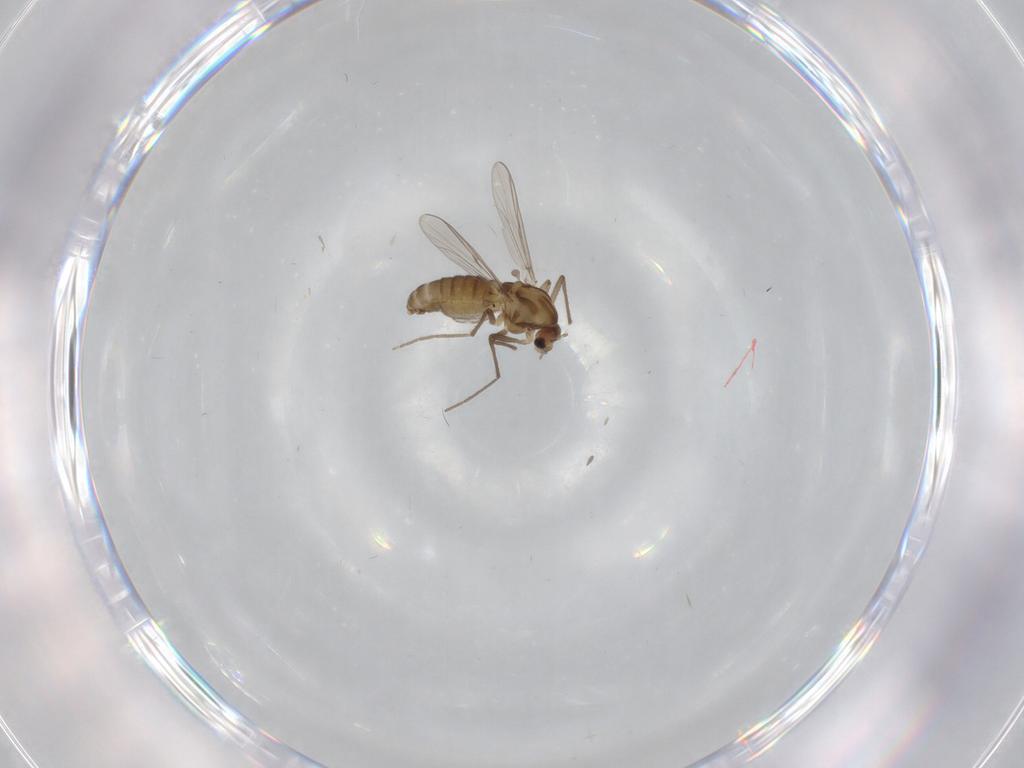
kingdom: Animalia
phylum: Arthropoda
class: Insecta
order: Diptera
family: Chironomidae
